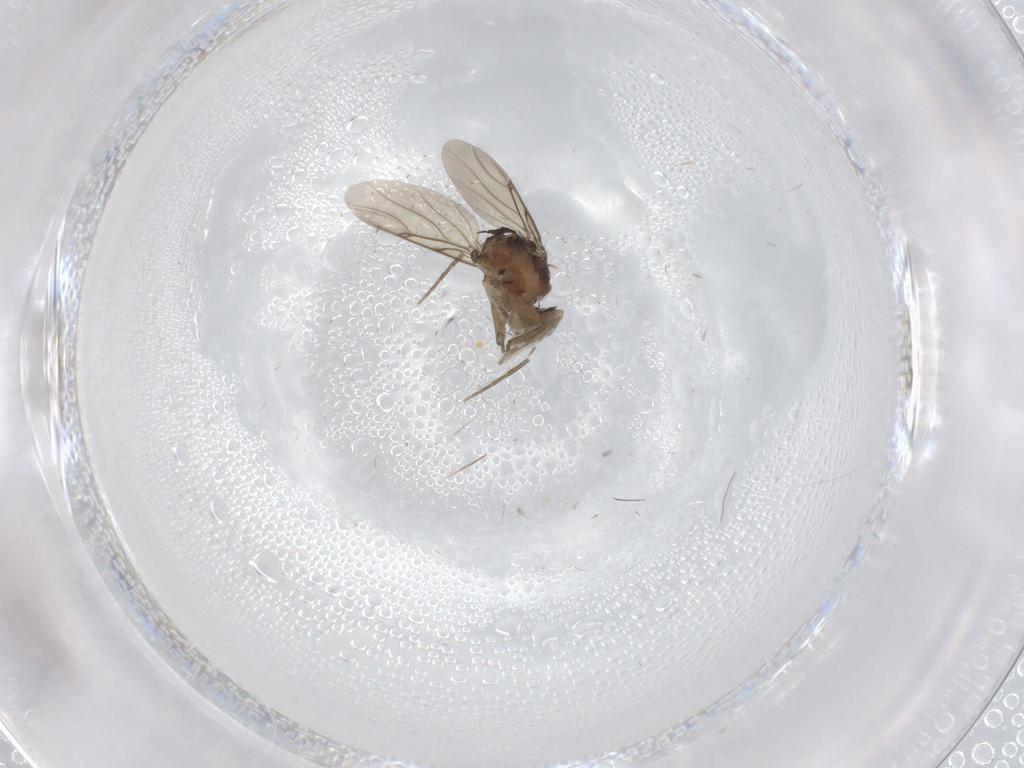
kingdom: Animalia
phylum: Arthropoda
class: Insecta
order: Diptera
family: Phoridae
